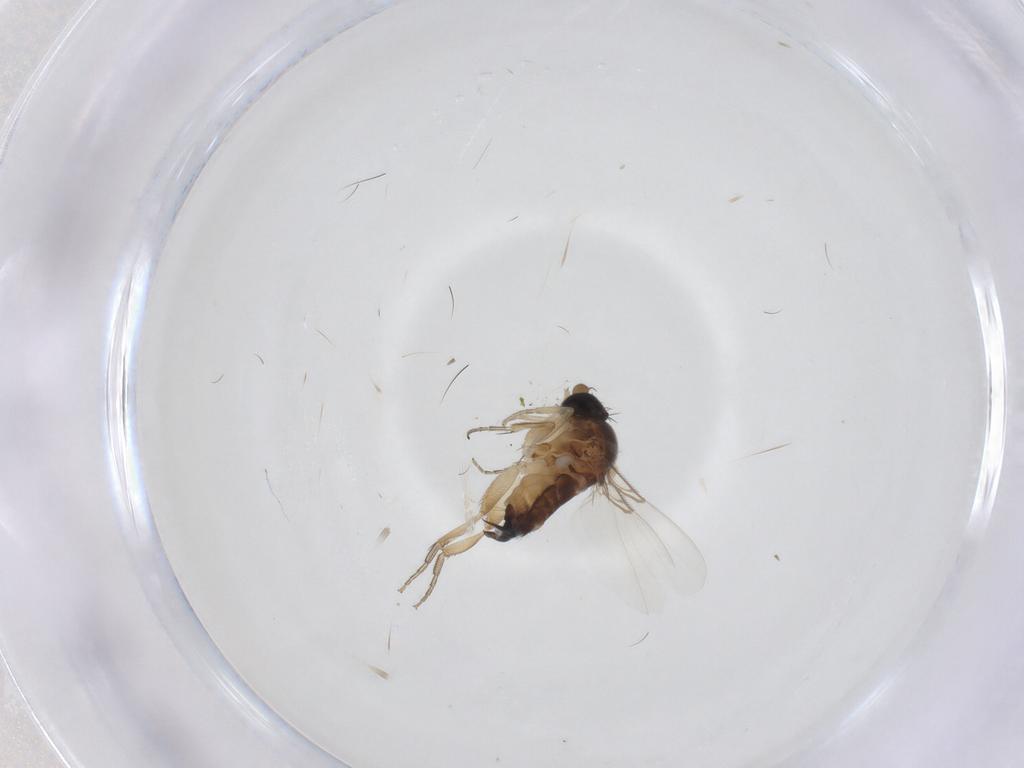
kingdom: Animalia
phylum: Arthropoda
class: Insecta
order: Diptera
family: Phoridae
